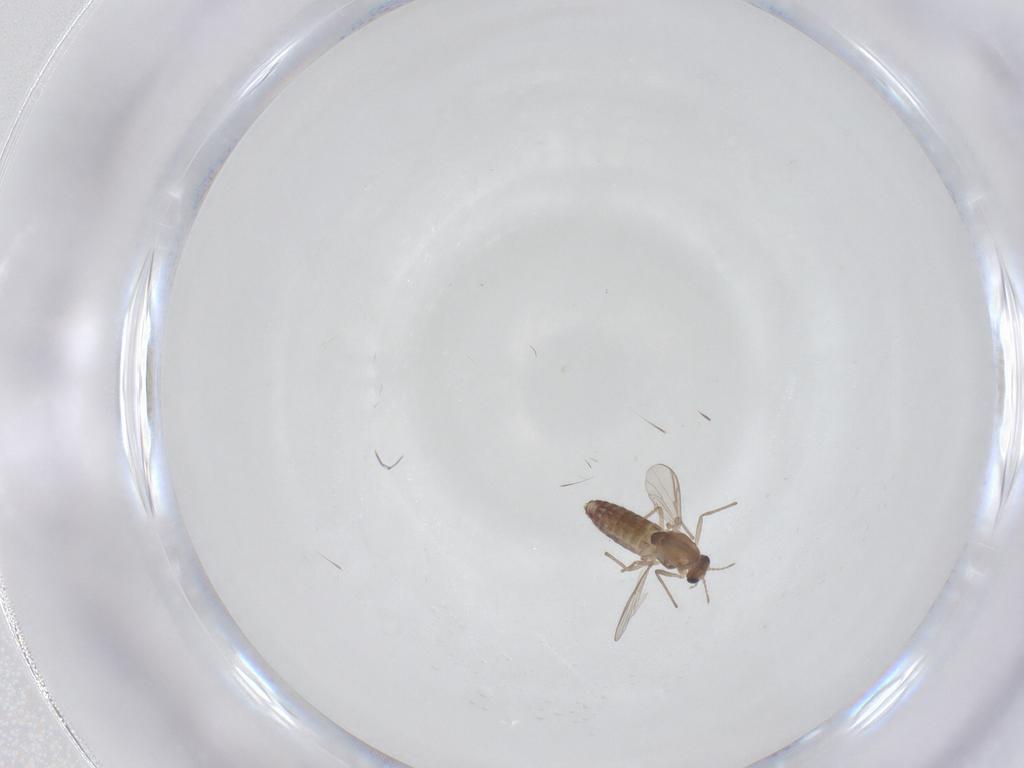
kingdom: Animalia
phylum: Arthropoda
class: Insecta
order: Diptera
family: Chironomidae
